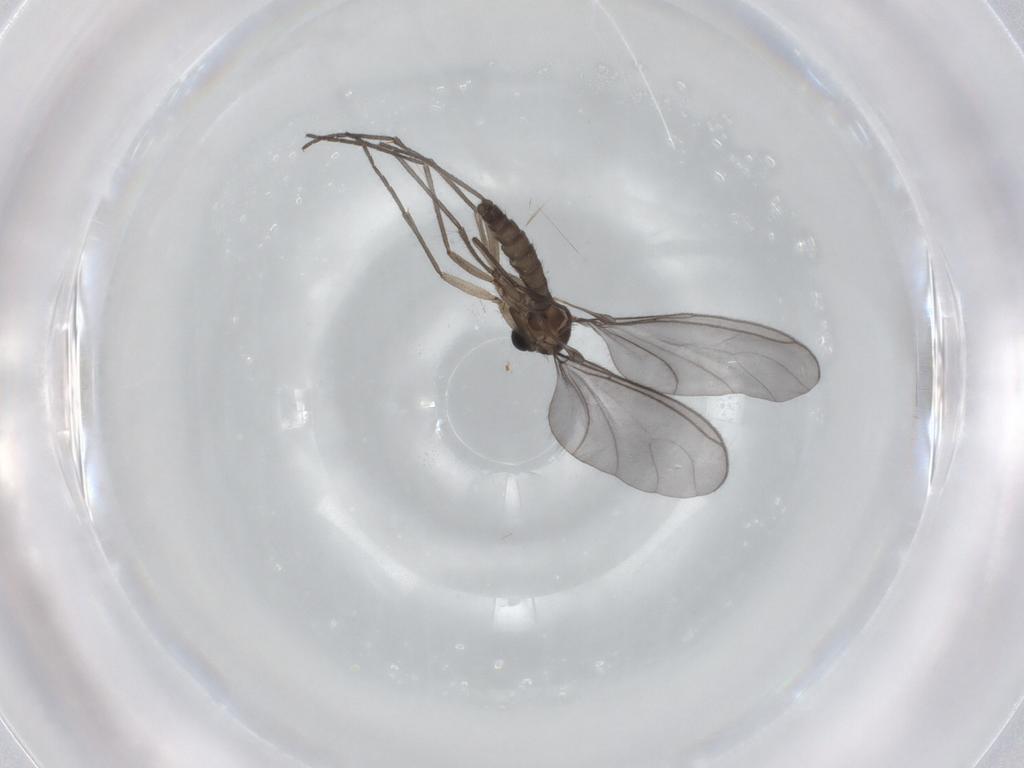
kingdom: Animalia
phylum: Arthropoda
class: Insecta
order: Diptera
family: Sciaridae
